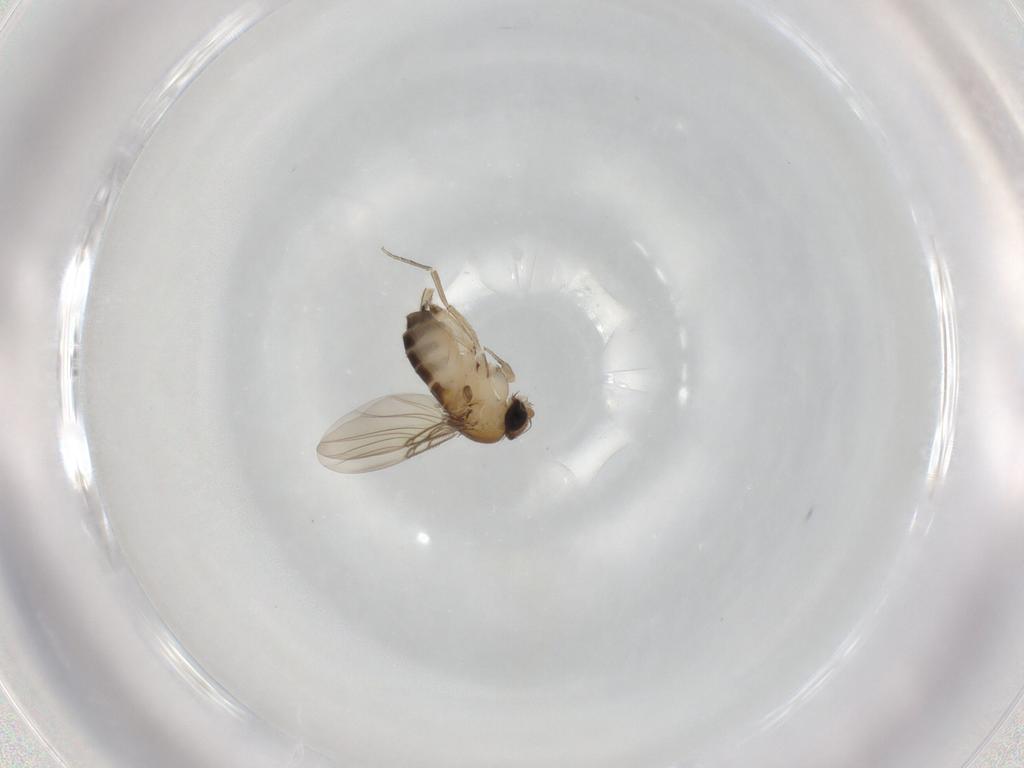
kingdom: Animalia
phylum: Arthropoda
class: Insecta
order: Diptera
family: Phoridae
